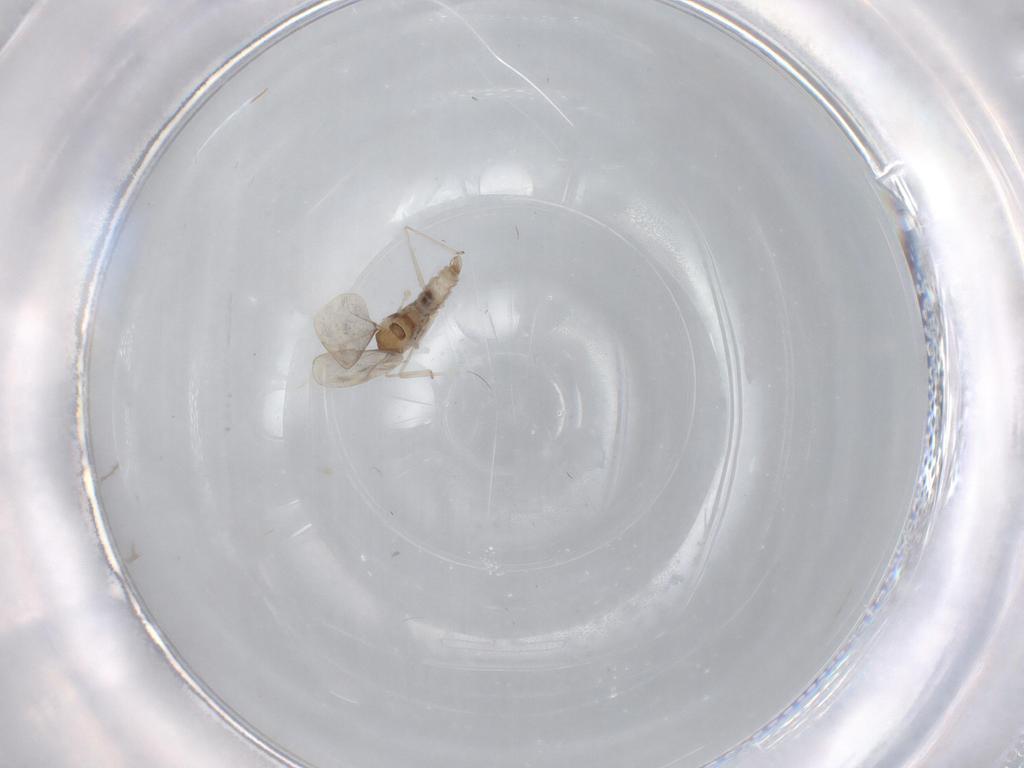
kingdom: Animalia
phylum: Arthropoda
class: Insecta
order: Diptera
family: Cecidomyiidae
